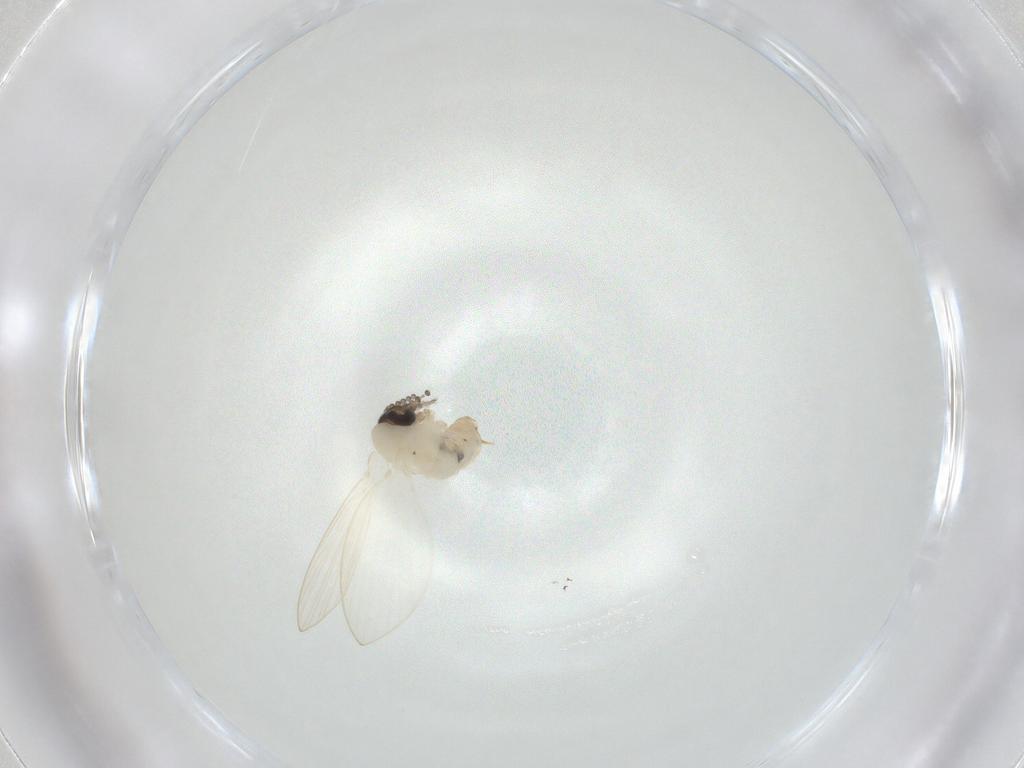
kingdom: Animalia
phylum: Arthropoda
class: Insecta
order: Diptera
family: Psychodidae
